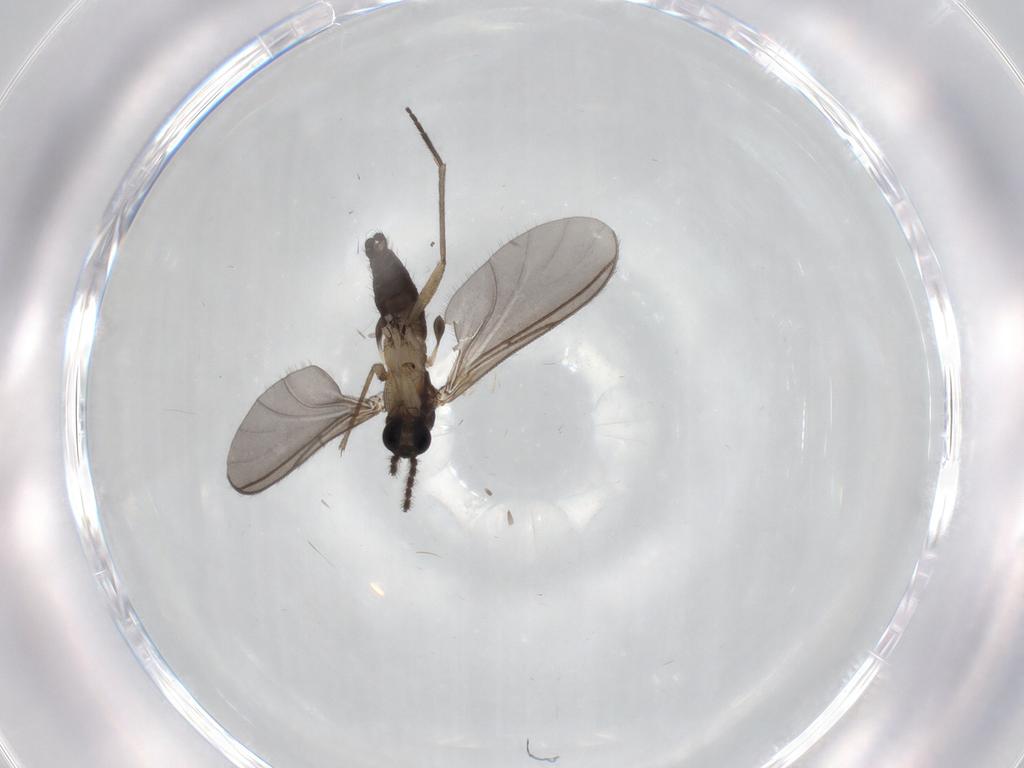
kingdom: Animalia
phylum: Arthropoda
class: Insecta
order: Diptera
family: Sciaridae
